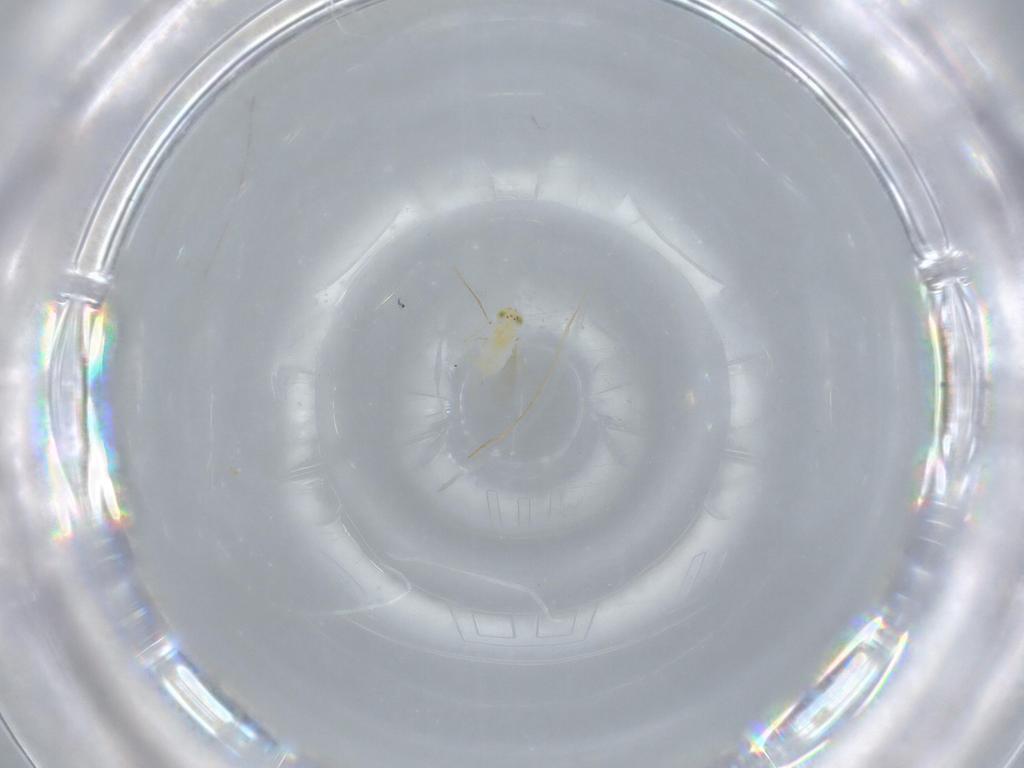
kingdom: Animalia
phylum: Arthropoda
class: Insecta
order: Hymenoptera
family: Aphelinidae
